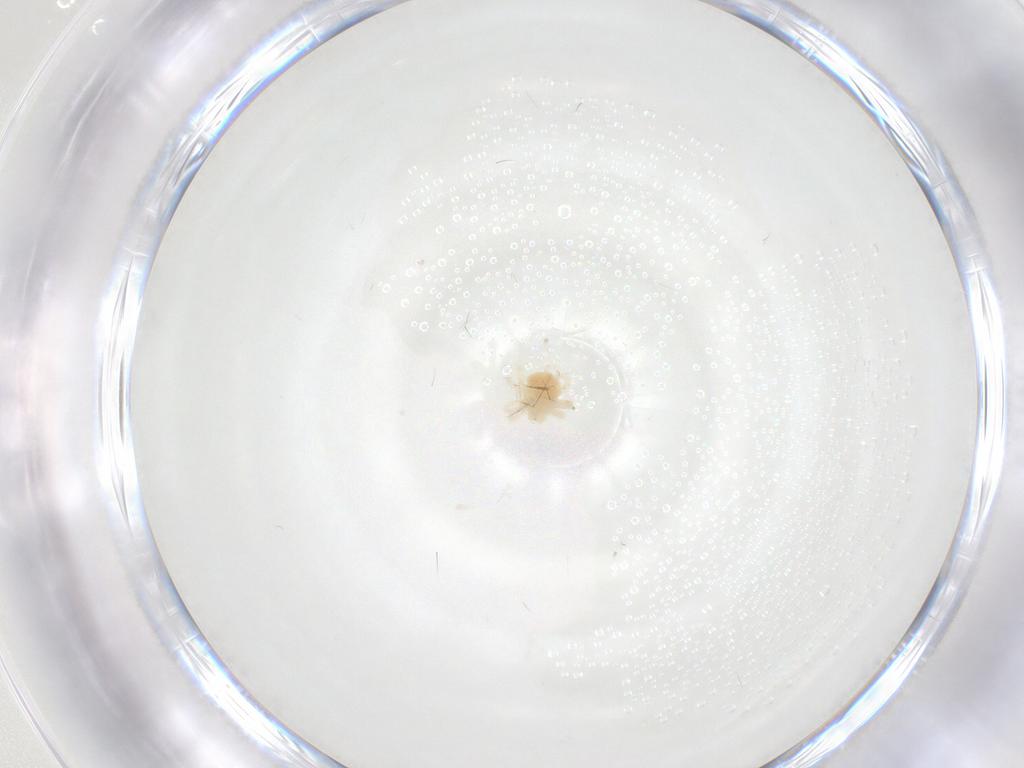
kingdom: Animalia
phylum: Arthropoda
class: Arachnida
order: Trombidiformes
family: Anystidae
